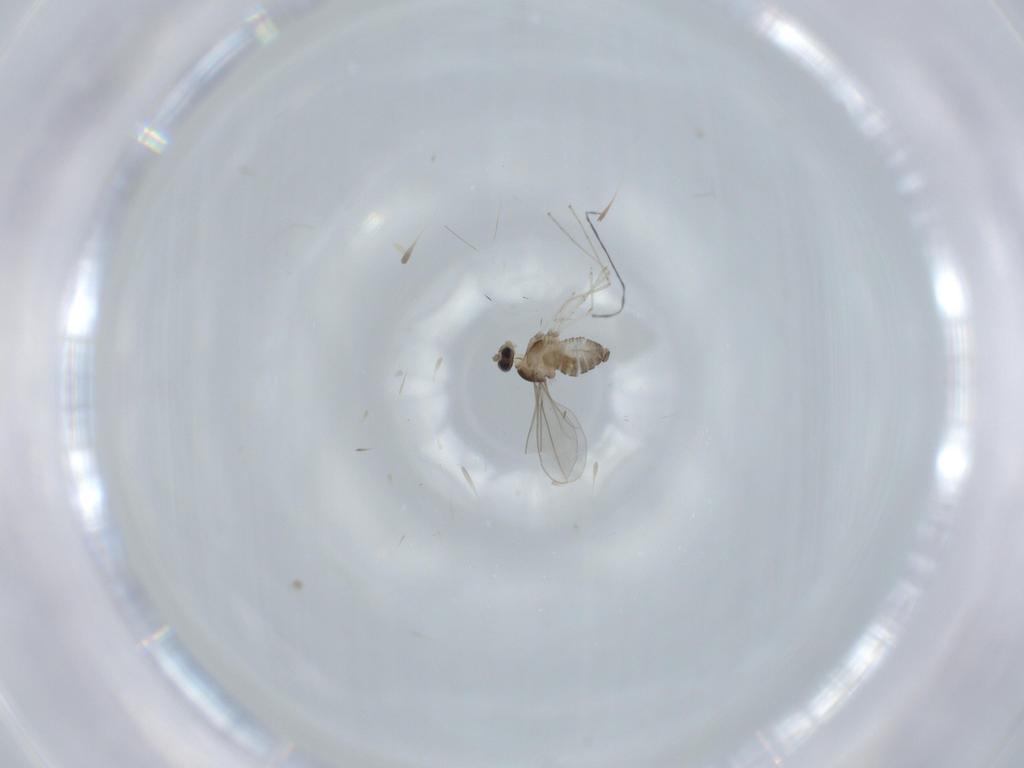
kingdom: Animalia
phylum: Arthropoda
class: Insecta
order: Diptera
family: Cecidomyiidae
